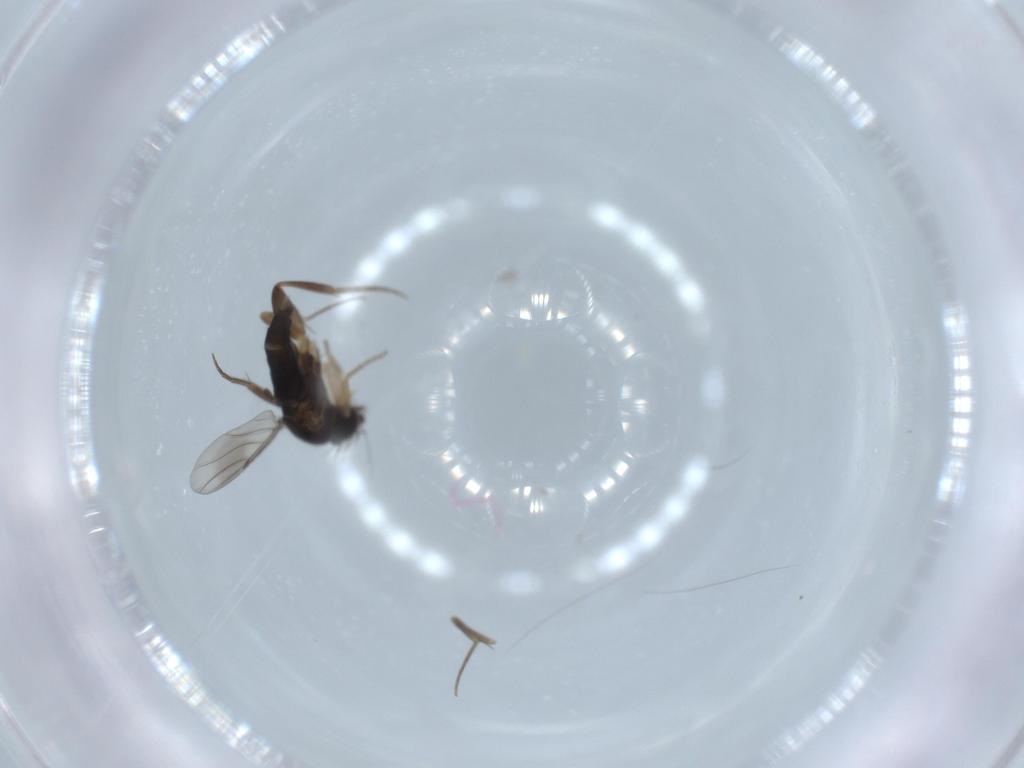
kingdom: Animalia
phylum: Arthropoda
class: Insecta
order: Diptera
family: Phoridae
